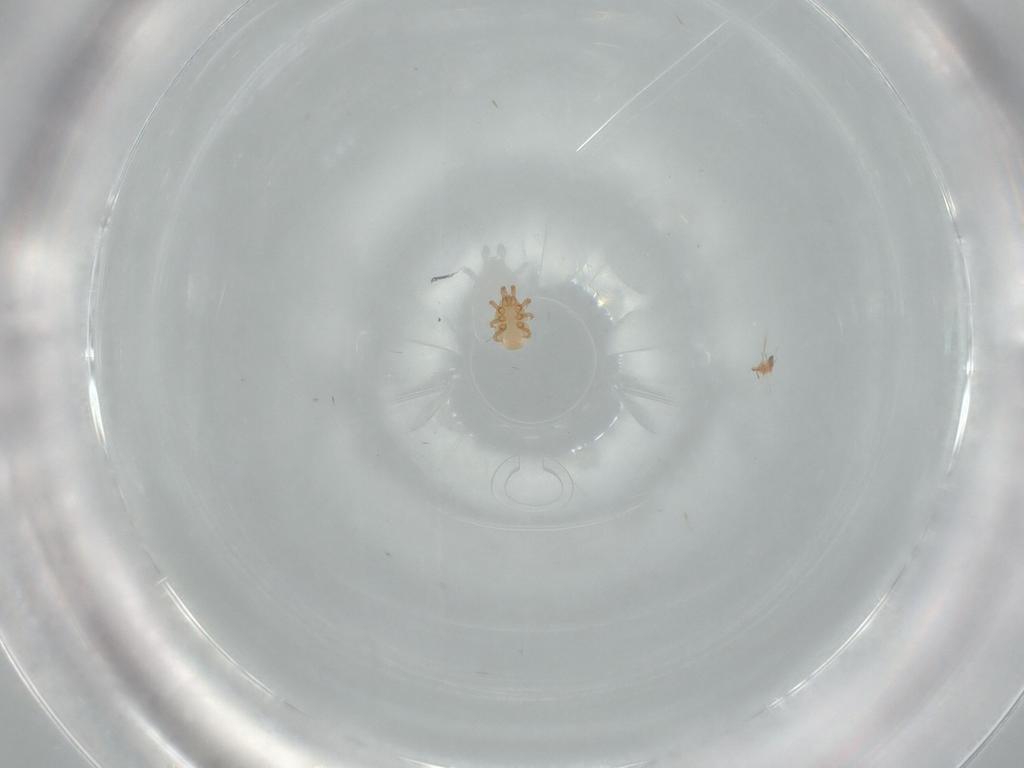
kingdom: Animalia
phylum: Arthropoda
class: Arachnida
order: Mesostigmata
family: Dinychidae
